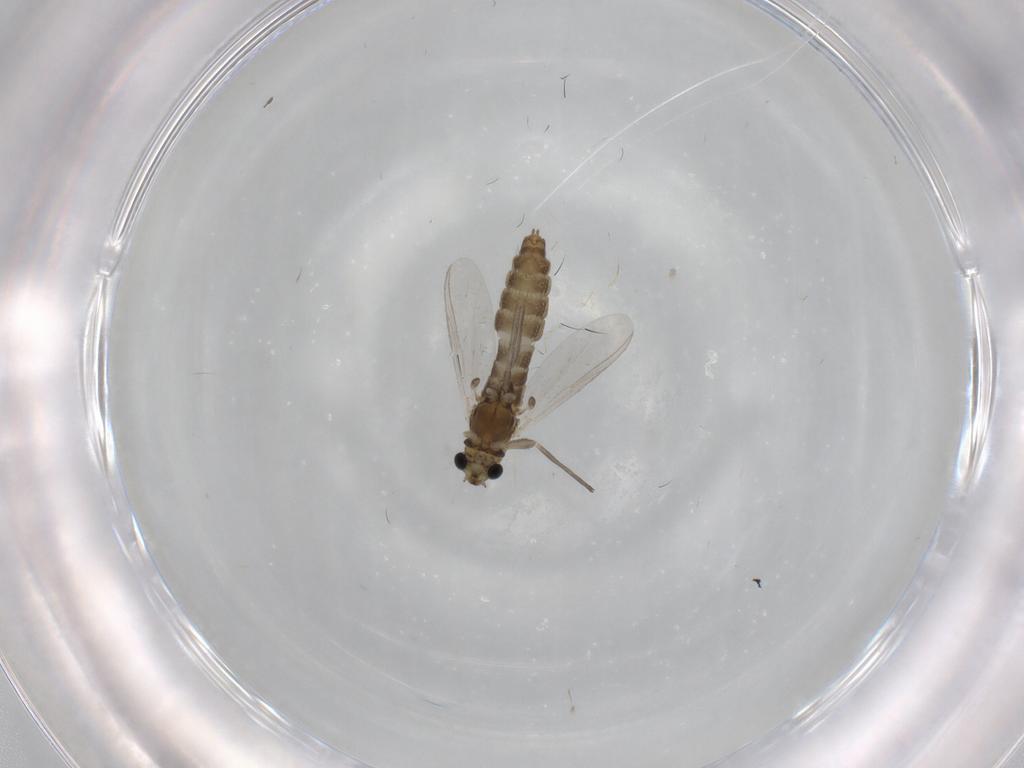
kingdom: Animalia
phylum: Arthropoda
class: Insecta
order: Diptera
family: Chironomidae
